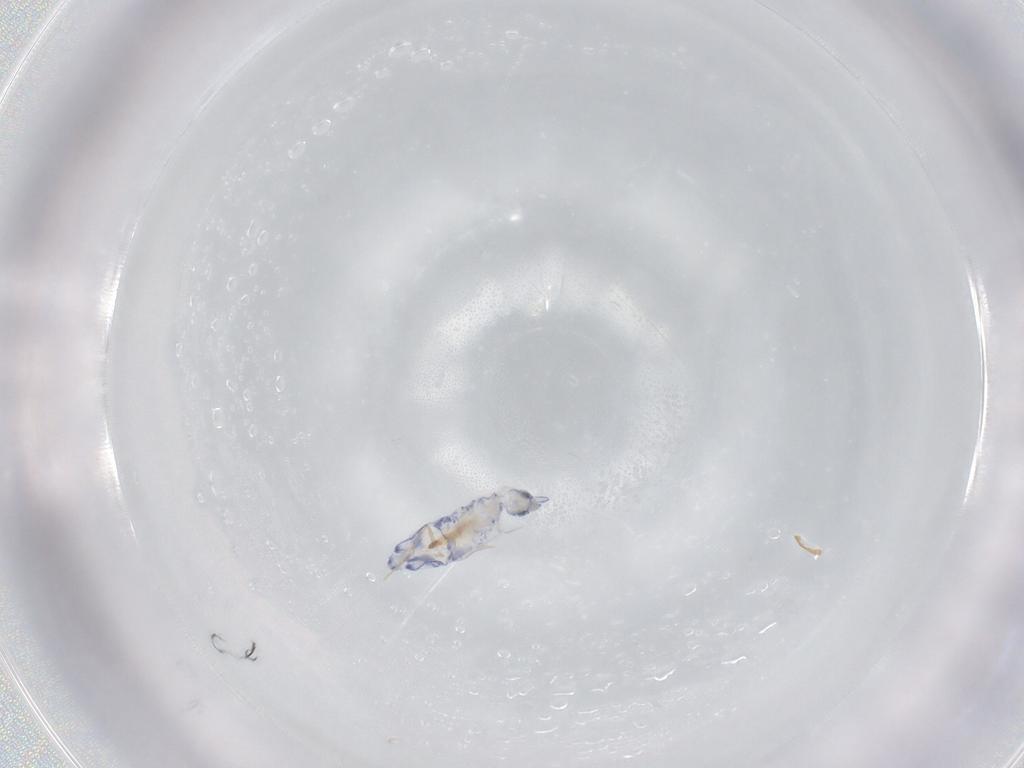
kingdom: Animalia
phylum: Arthropoda
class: Collembola
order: Entomobryomorpha
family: Entomobryidae
